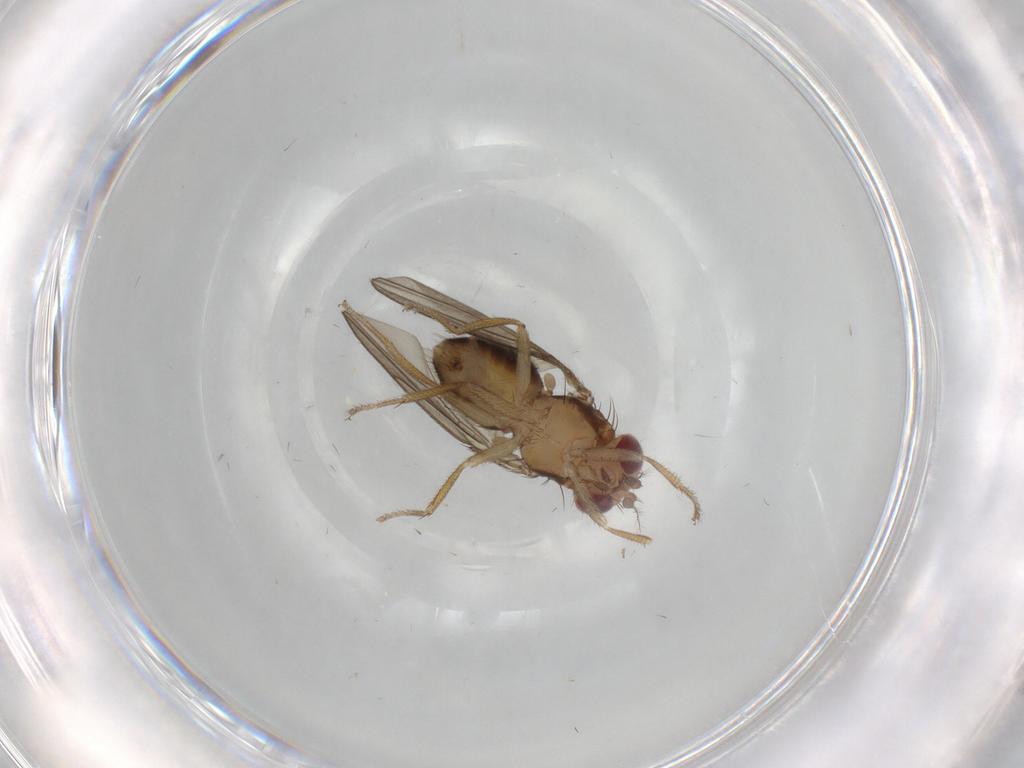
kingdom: Animalia
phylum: Arthropoda
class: Insecta
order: Diptera
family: Drosophilidae
